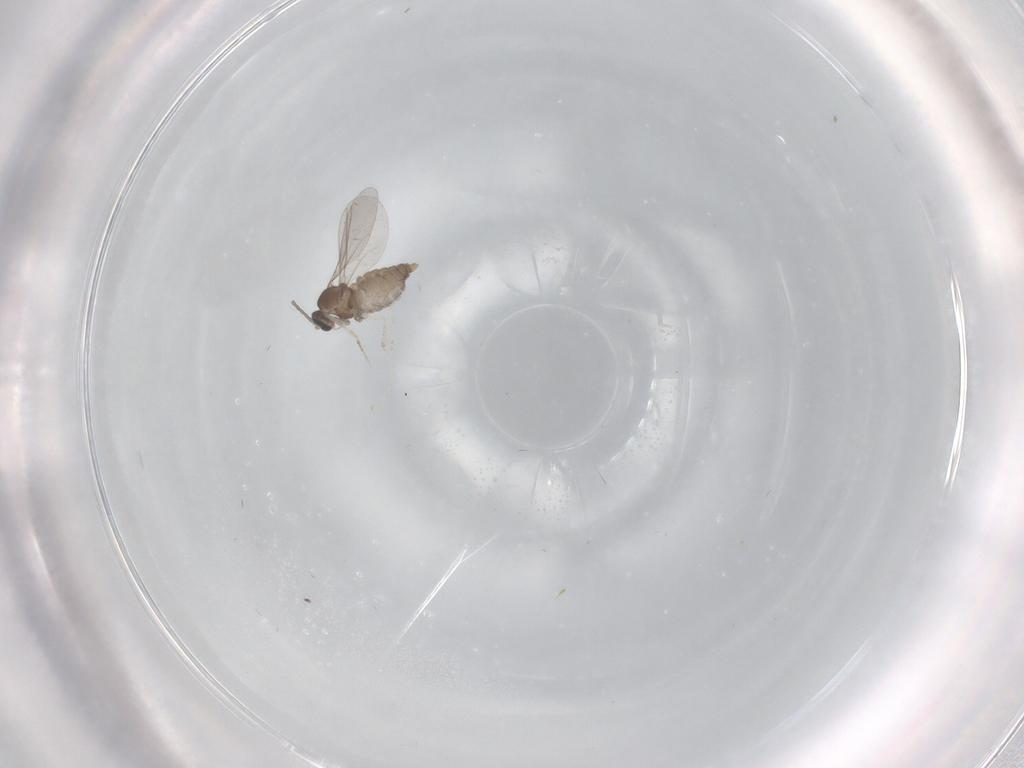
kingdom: Animalia
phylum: Arthropoda
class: Insecta
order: Diptera
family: Cecidomyiidae
